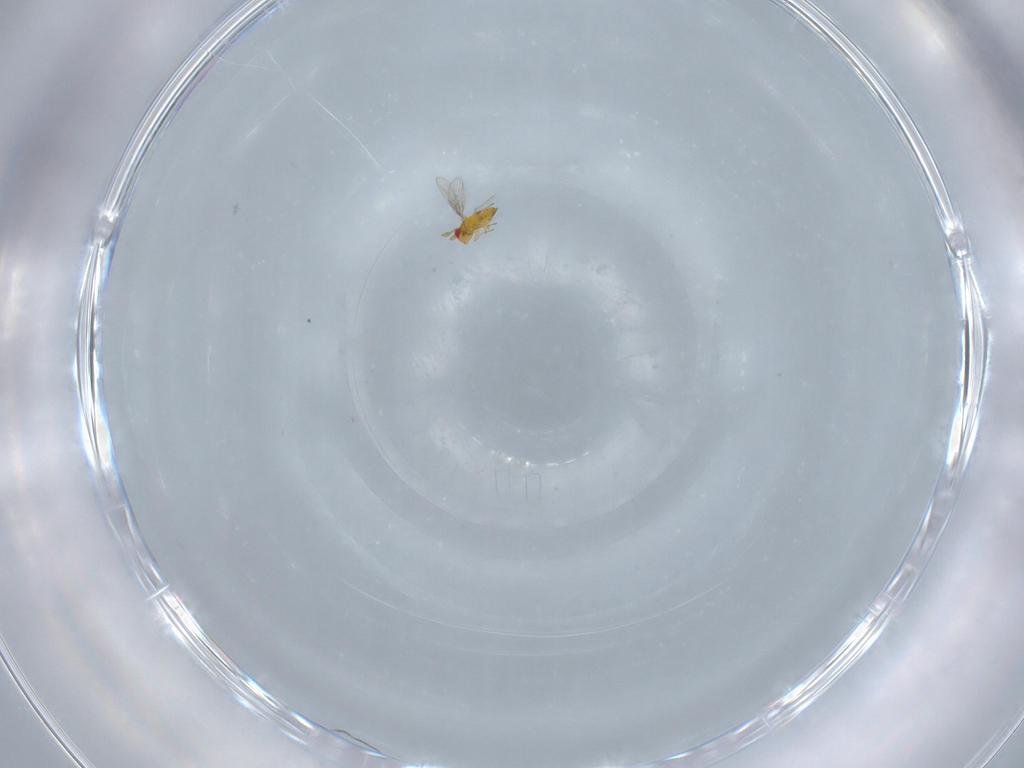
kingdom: Animalia
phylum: Arthropoda
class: Insecta
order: Hymenoptera
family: Trichogrammatidae
